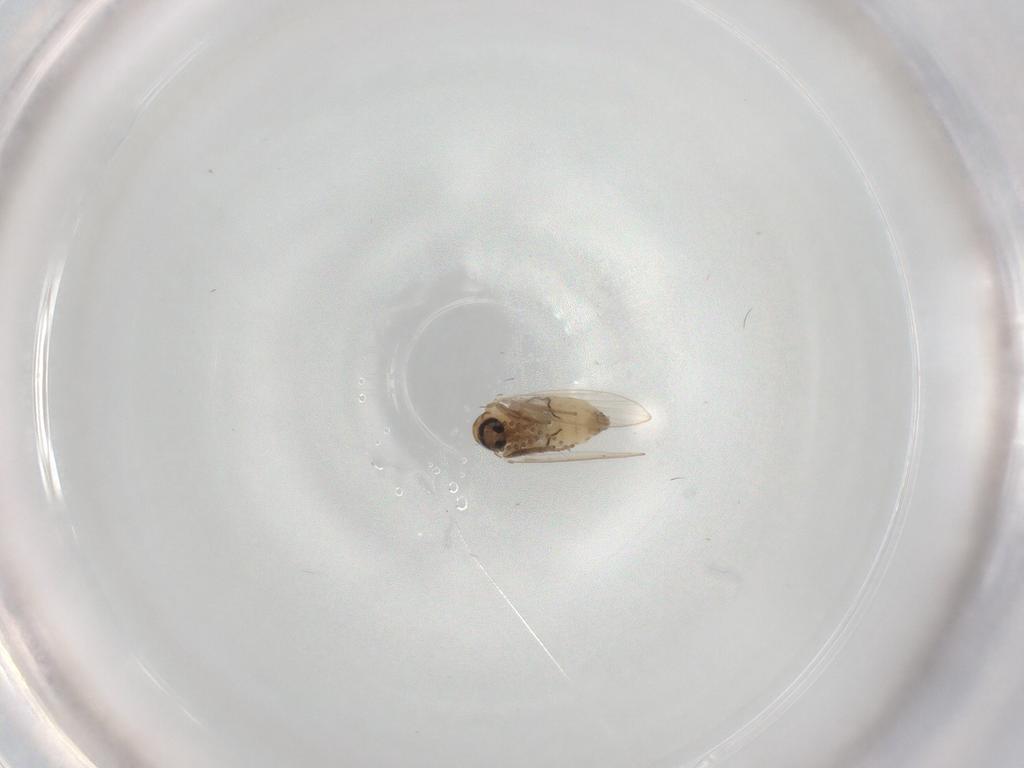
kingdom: Animalia
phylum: Arthropoda
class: Insecta
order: Diptera
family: Psychodidae
